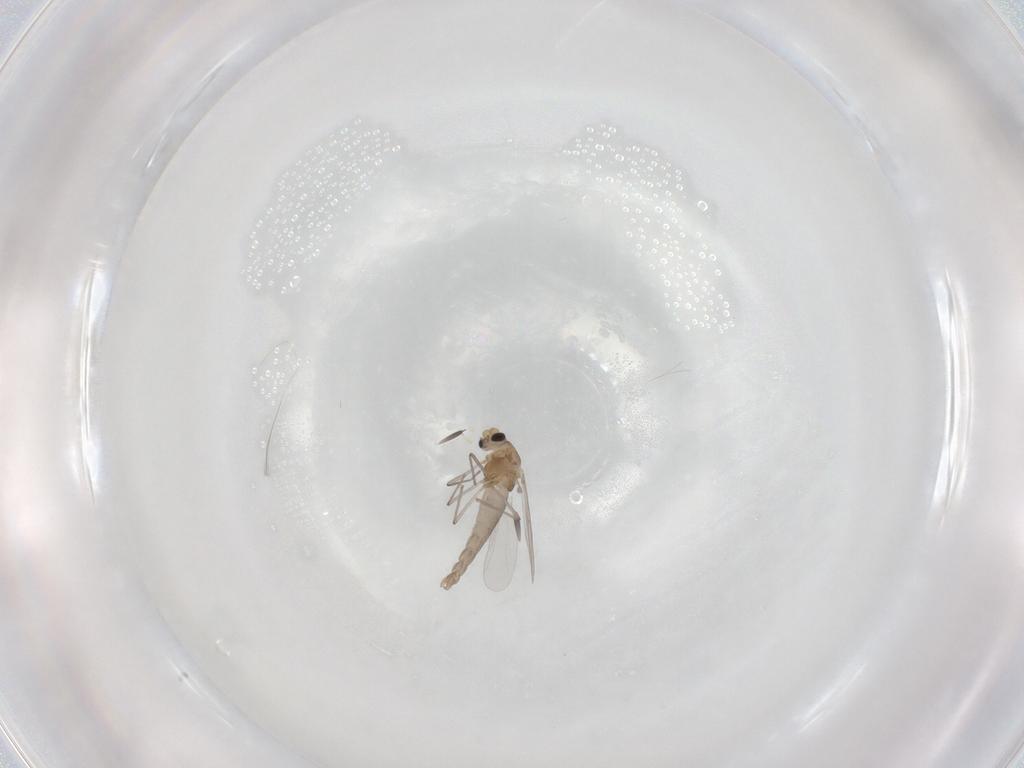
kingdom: Animalia
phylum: Arthropoda
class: Insecta
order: Diptera
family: Chironomidae
